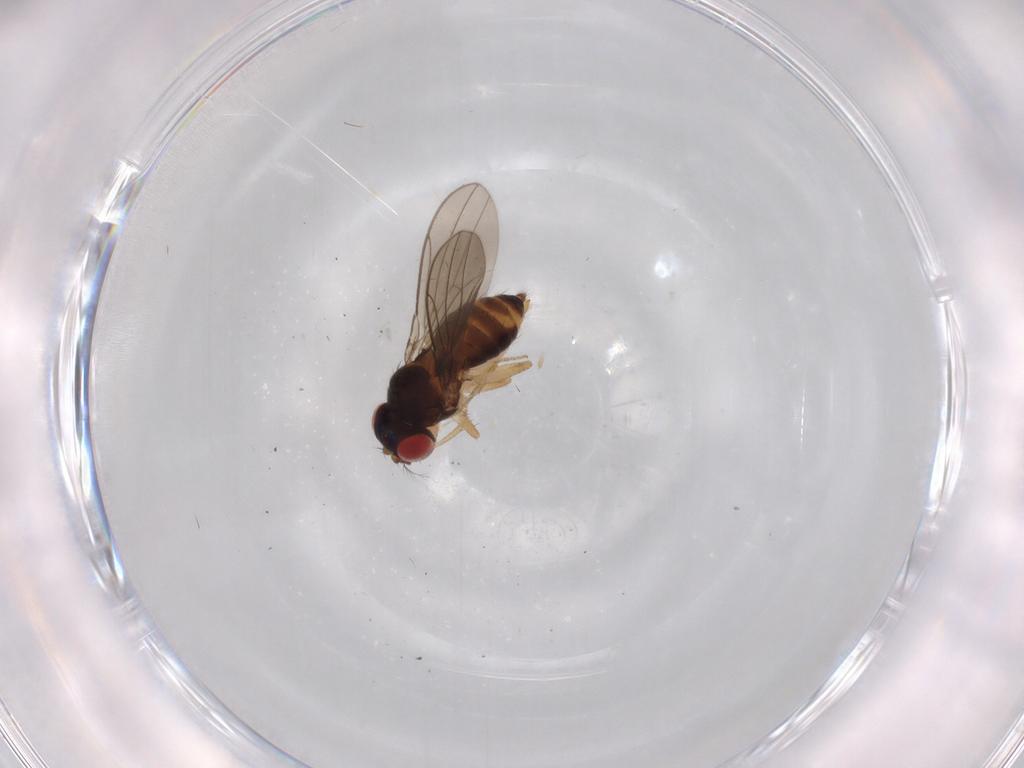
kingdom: Animalia
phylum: Arthropoda
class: Insecta
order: Diptera
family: Drosophilidae
